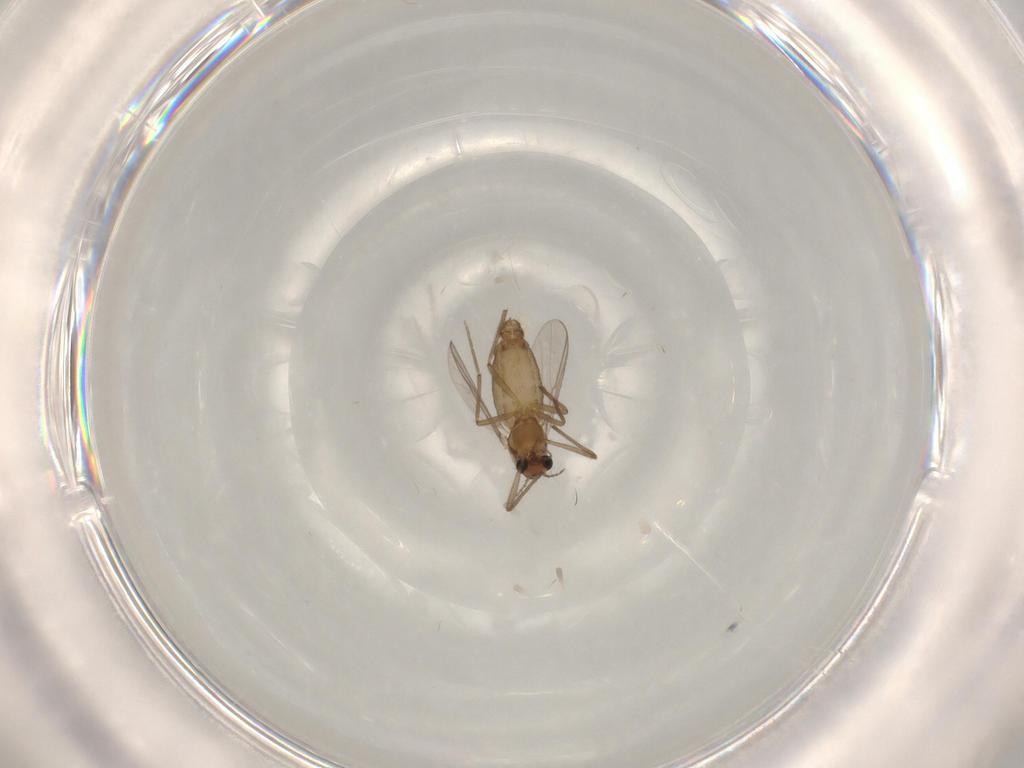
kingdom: Animalia
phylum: Arthropoda
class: Insecta
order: Diptera
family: Chironomidae
